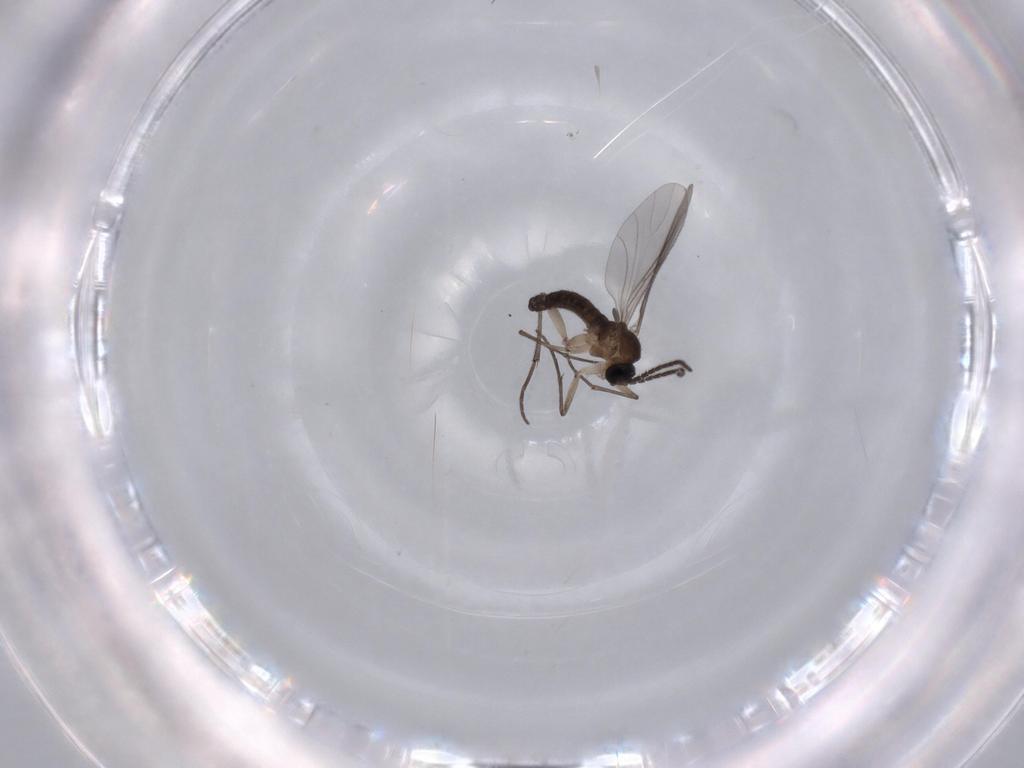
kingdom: Animalia
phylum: Arthropoda
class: Insecta
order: Diptera
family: Sciaridae
